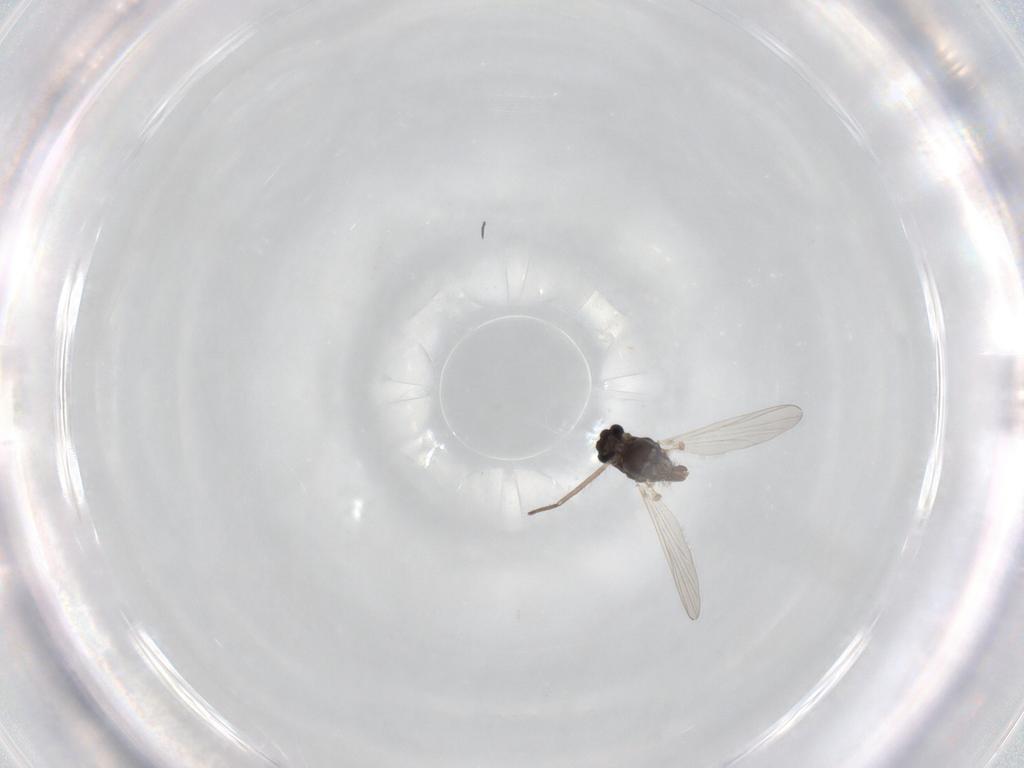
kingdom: Animalia
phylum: Arthropoda
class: Insecta
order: Diptera
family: Chironomidae
